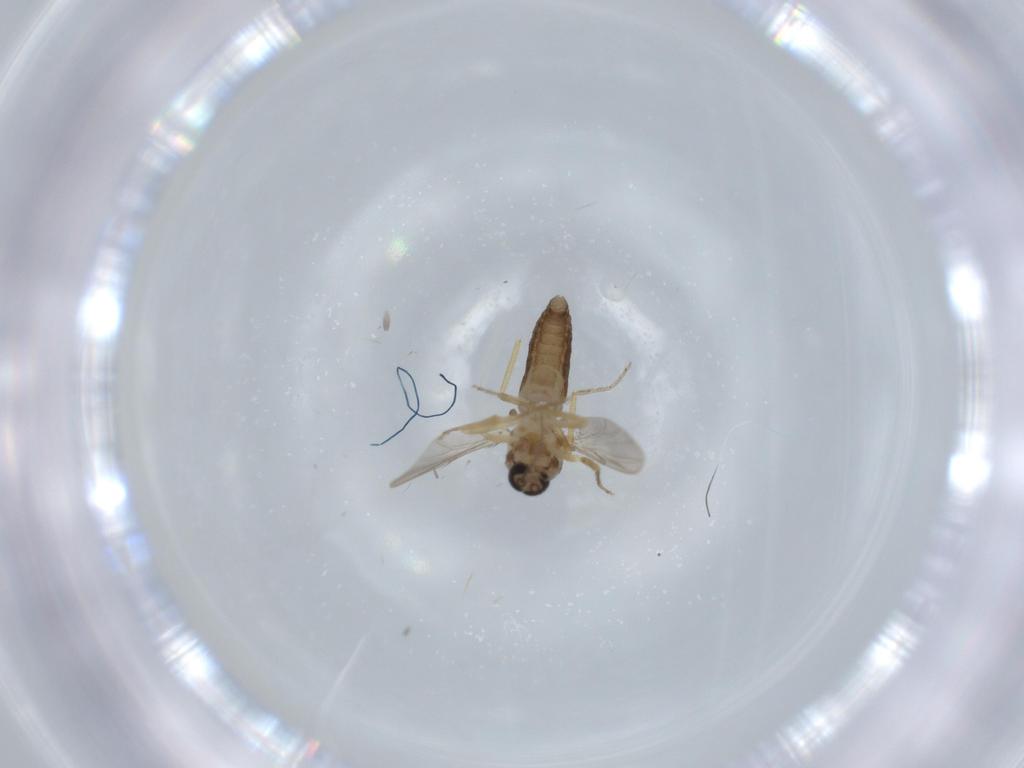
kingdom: Animalia
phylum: Arthropoda
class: Insecta
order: Diptera
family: Ceratopogonidae
